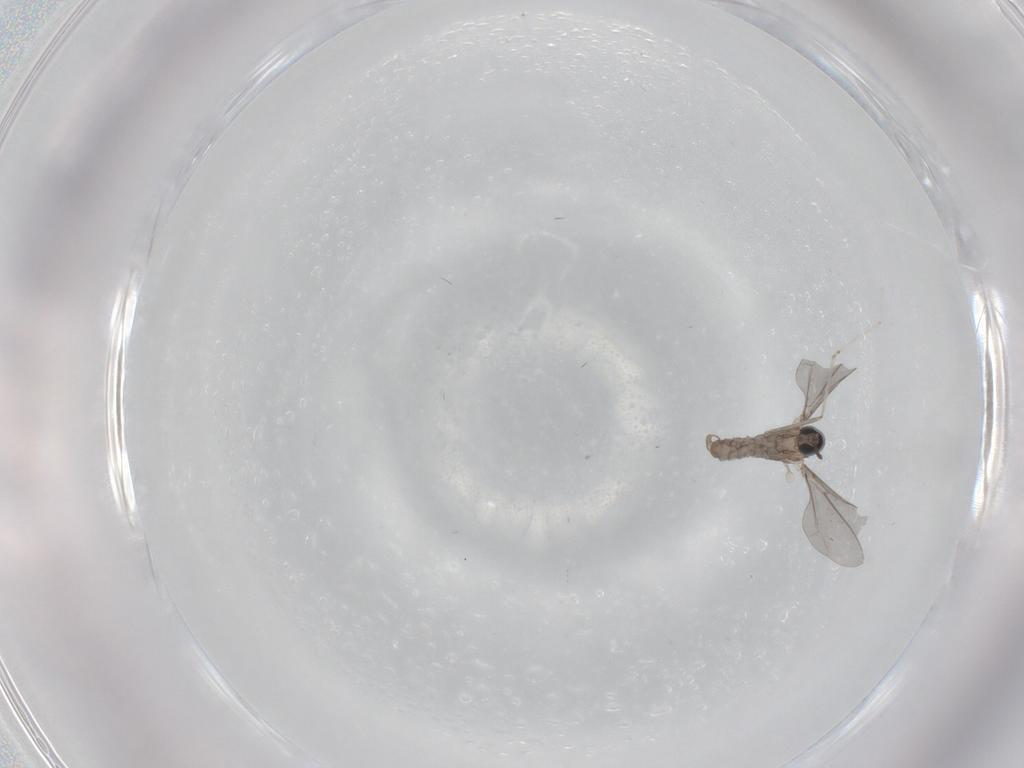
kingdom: Animalia
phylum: Arthropoda
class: Insecta
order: Diptera
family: Cecidomyiidae
